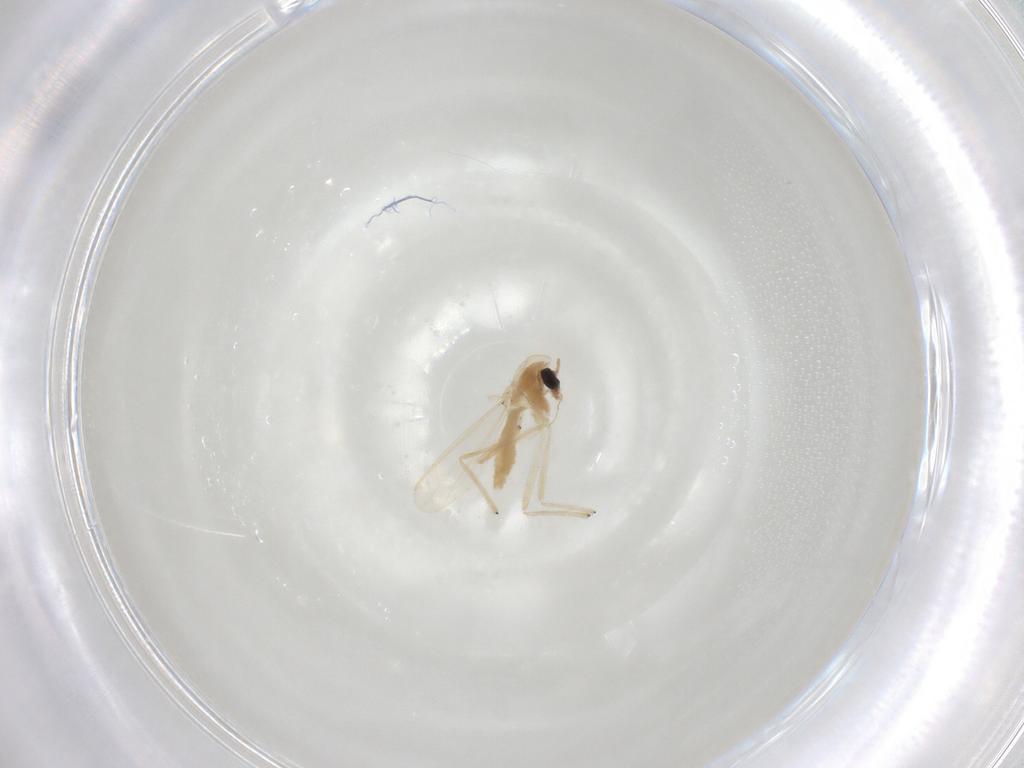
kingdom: Animalia
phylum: Arthropoda
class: Insecta
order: Diptera
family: Chironomidae
